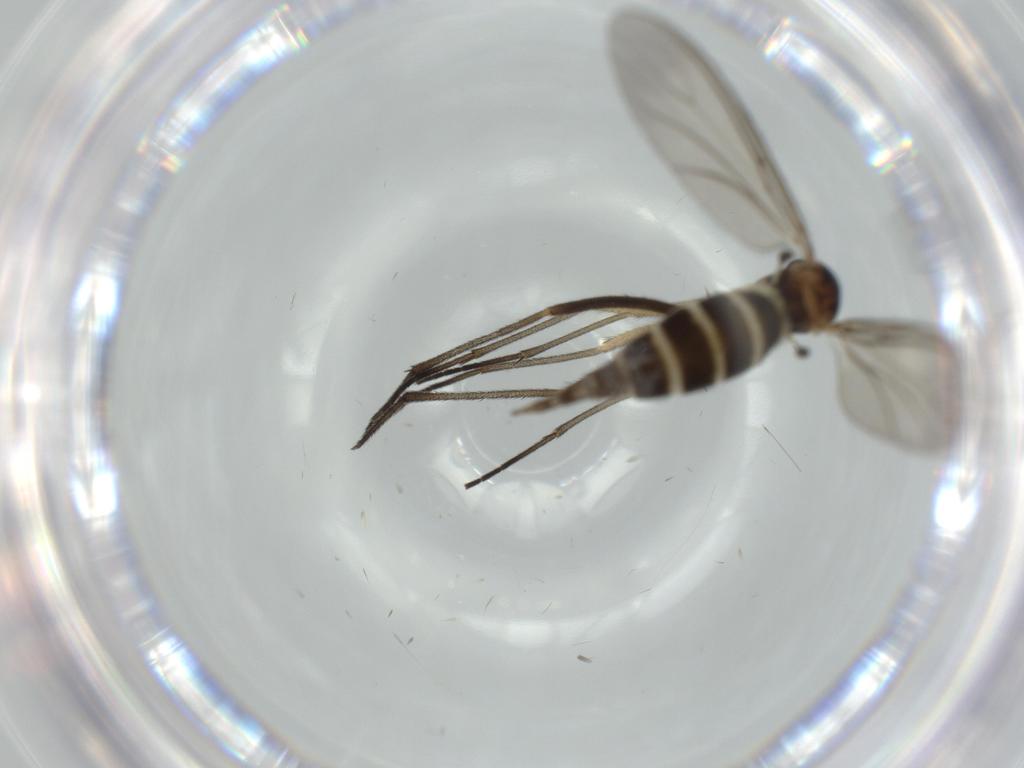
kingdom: Animalia
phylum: Arthropoda
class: Insecta
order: Diptera
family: Sciaridae
